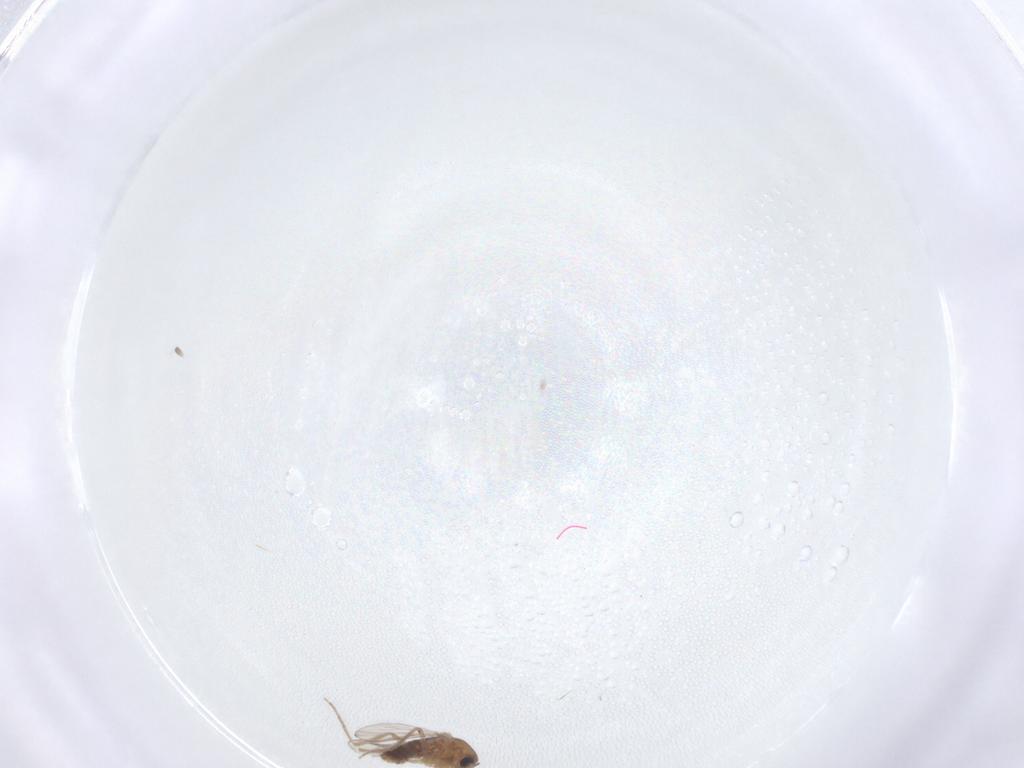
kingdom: Animalia
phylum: Arthropoda
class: Insecta
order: Diptera
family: Chironomidae
